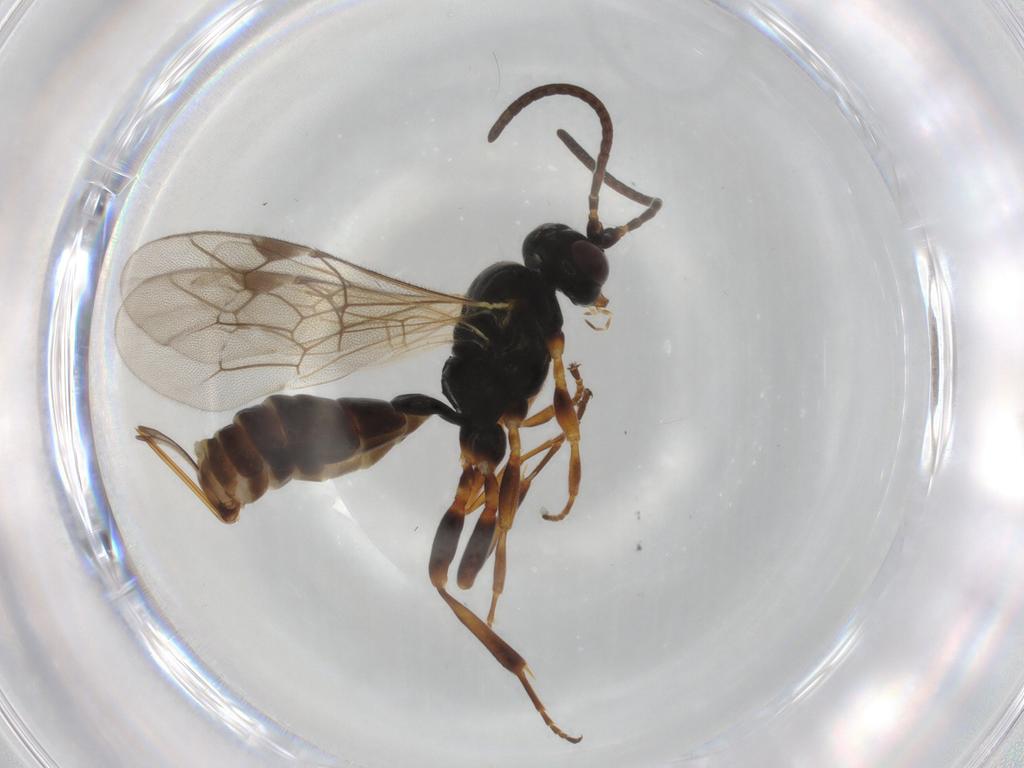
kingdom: Animalia
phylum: Arthropoda
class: Insecta
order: Hymenoptera
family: Ichneumonidae
